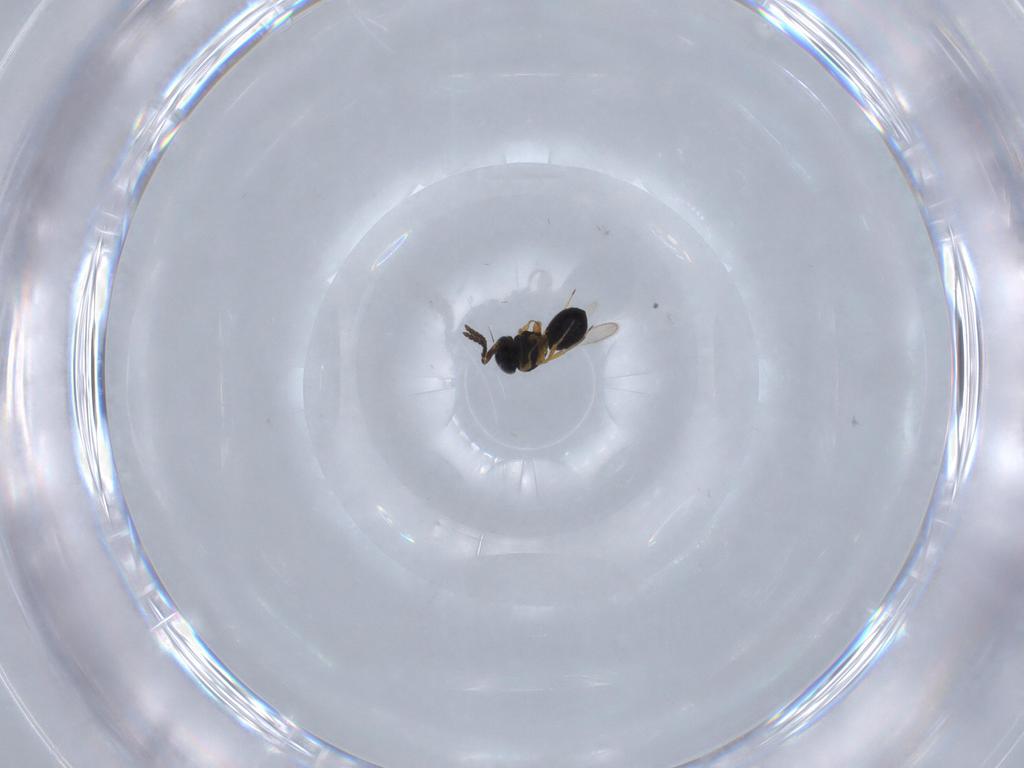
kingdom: Animalia
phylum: Arthropoda
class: Insecta
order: Hymenoptera
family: Scelionidae
